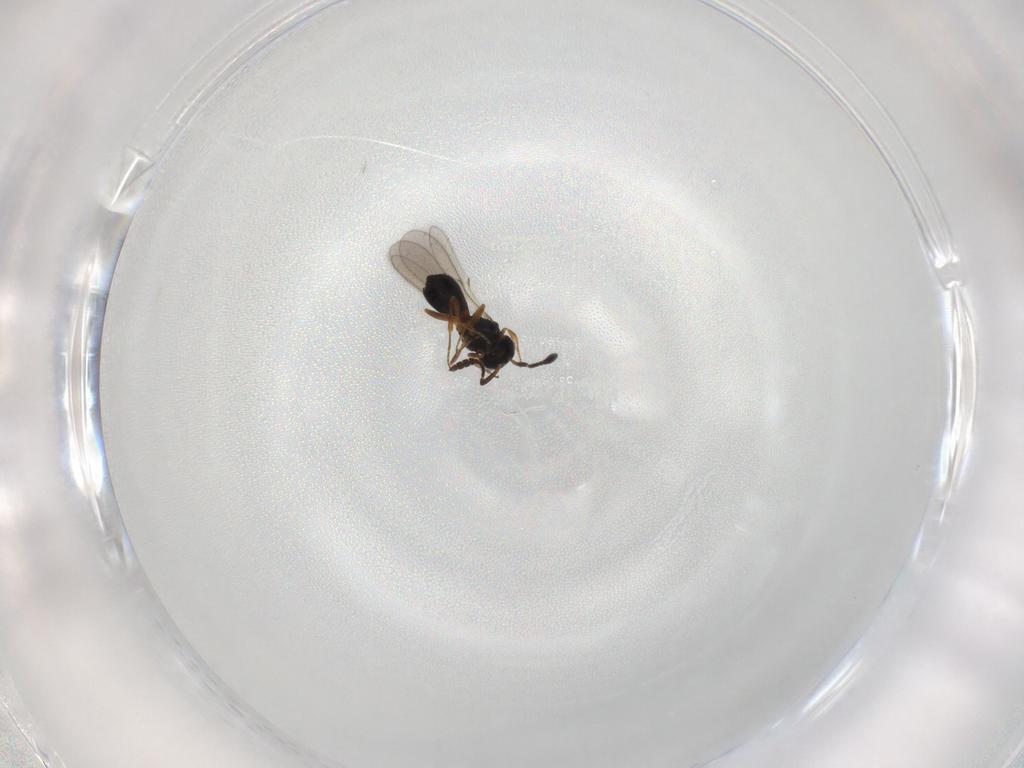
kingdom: Animalia
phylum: Arthropoda
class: Insecta
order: Hymenoptera
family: Scelionidae
